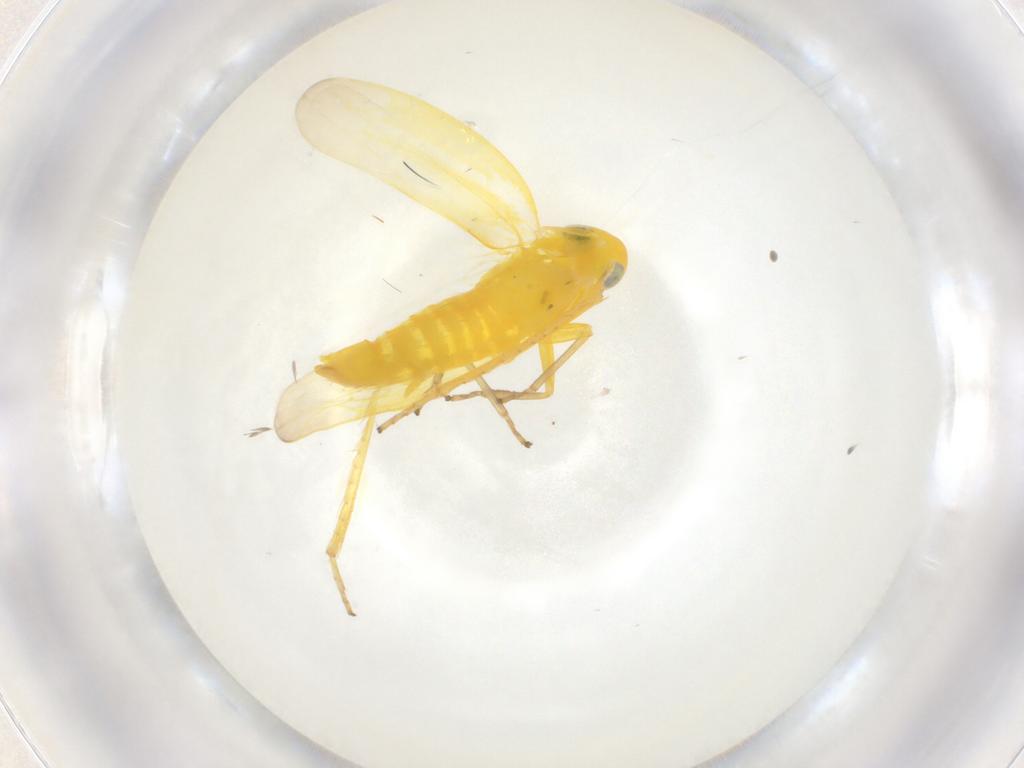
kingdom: Animalia
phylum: Arthropoda
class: Insecta
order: Hemiptera
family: Cicadellidae
